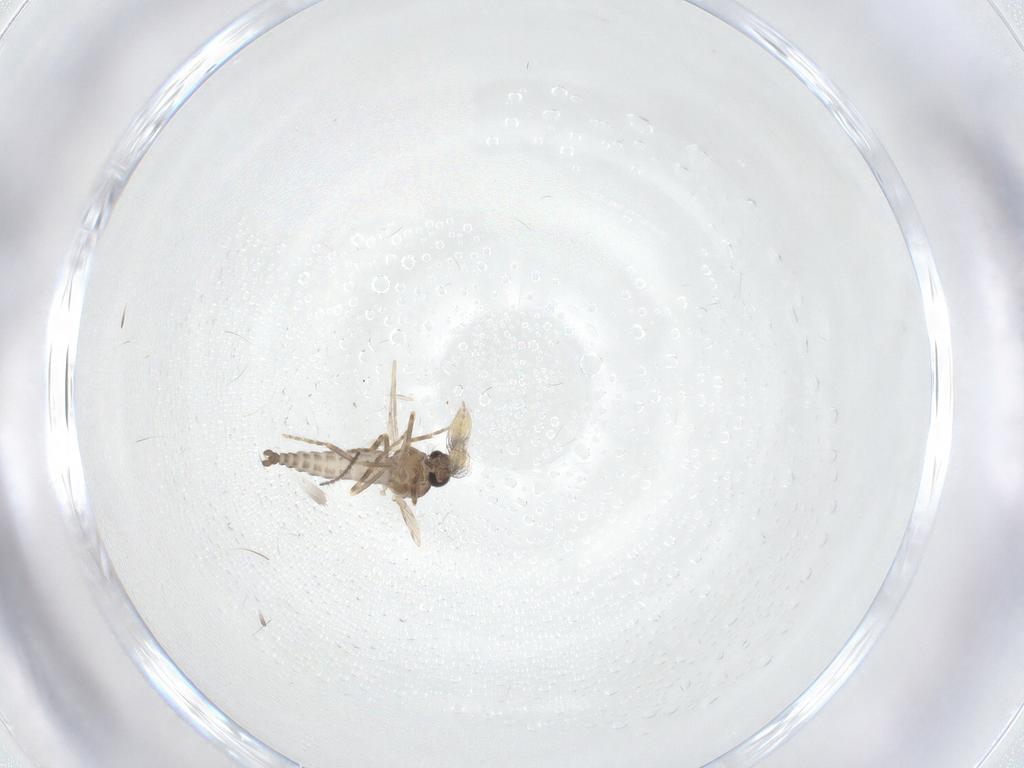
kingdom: Animalia
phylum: Arthropoda
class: Insecta
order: Diptera
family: Ceratopogonidae
